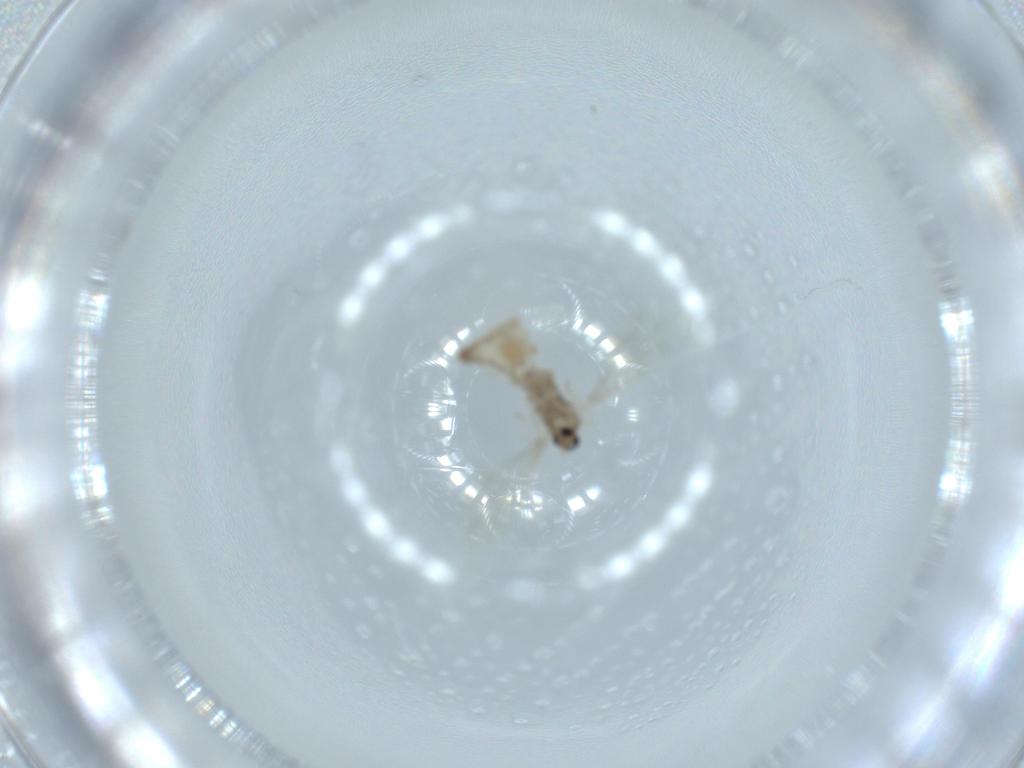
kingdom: Animalia
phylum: Arthropoda
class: Insecta
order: Diptera
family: Cecidomyiidae
